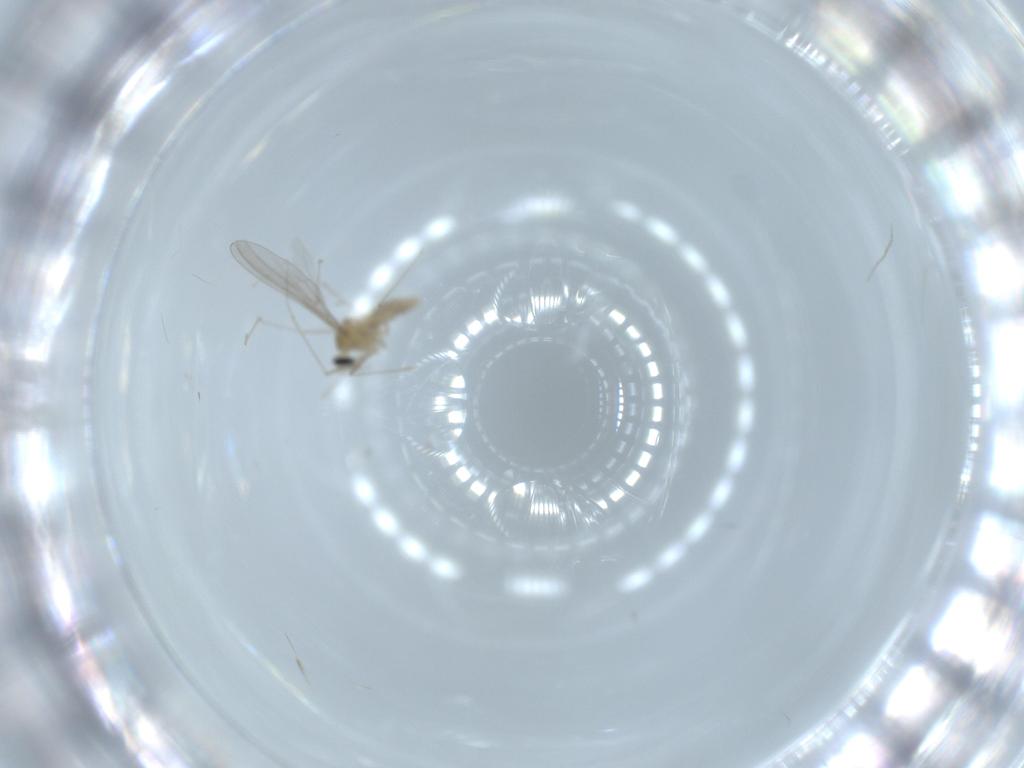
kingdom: Animalia
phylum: Arthropoda
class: Insecta
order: Diptera
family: Cecidomyiidae
